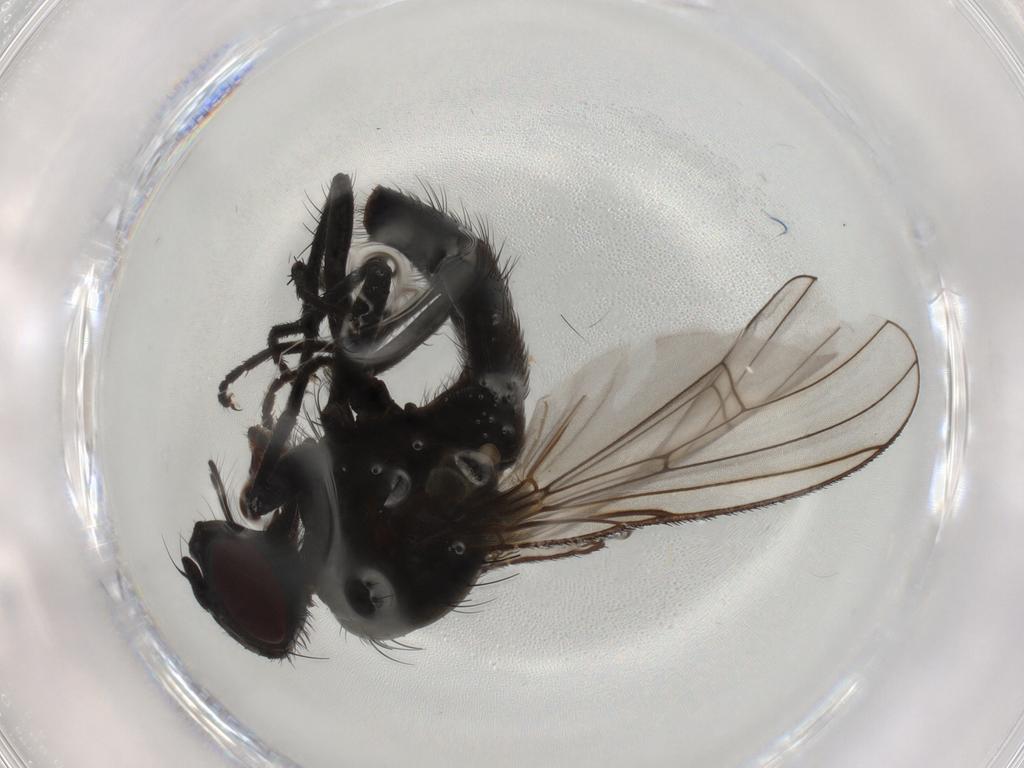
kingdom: Animalia
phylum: Arthropoda
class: Insecta
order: Diptera
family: Muscidae
